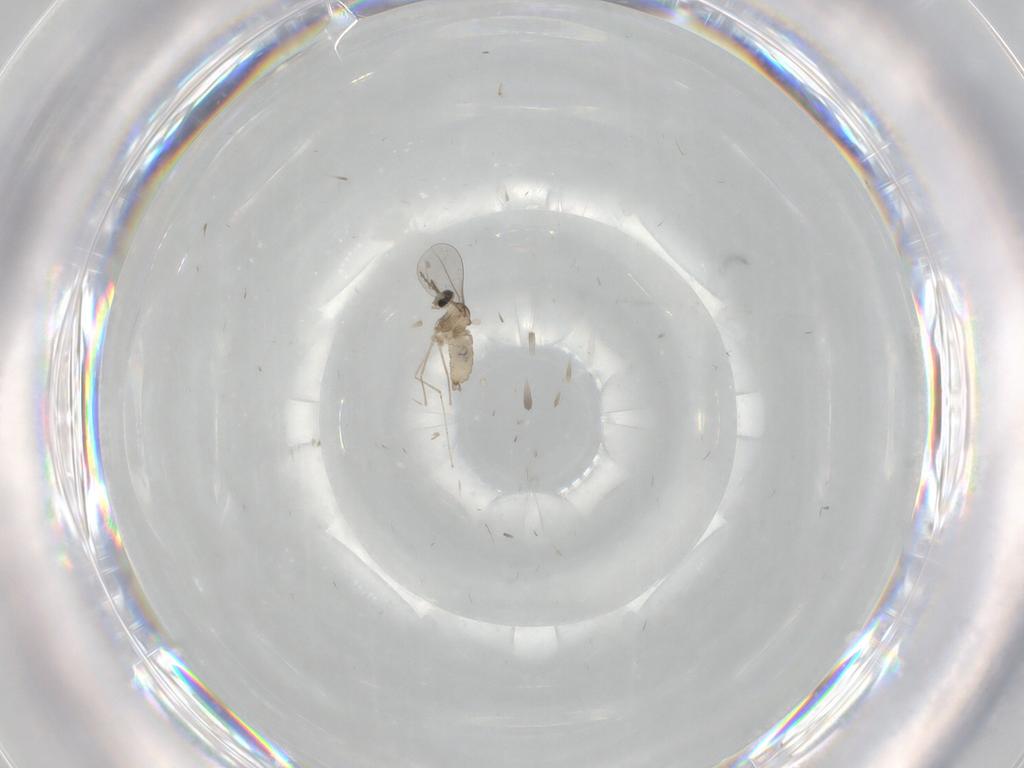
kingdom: Animalia
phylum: Arthropoda
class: Insecta
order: Diptera
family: Cecidomyiidae
